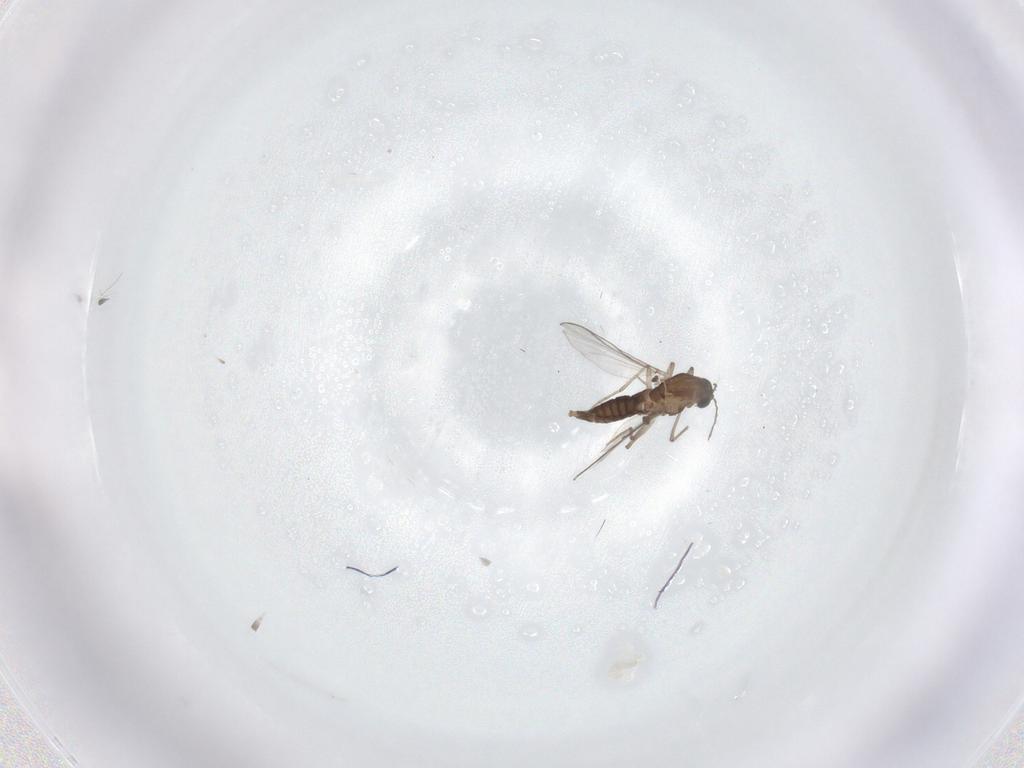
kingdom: Animalia
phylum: Arthropoda
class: Insecta
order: Diptera
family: Chironomidae
